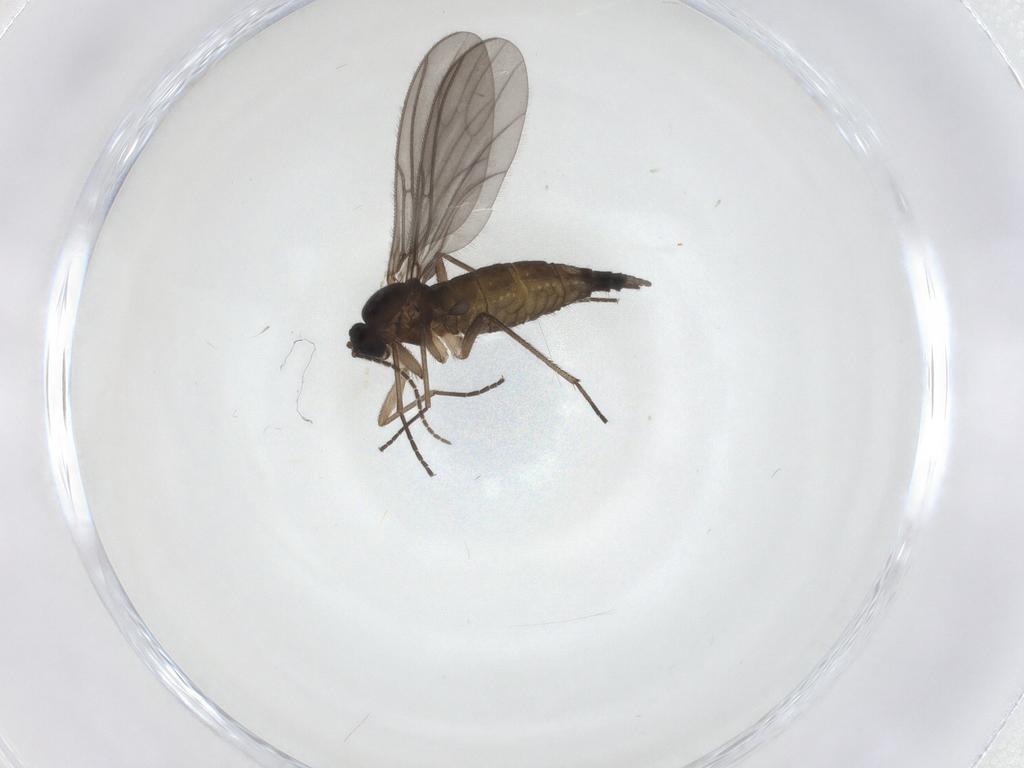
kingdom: Animalia
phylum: Arthropoda
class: Insecta
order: Diptera
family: Sciaridae
